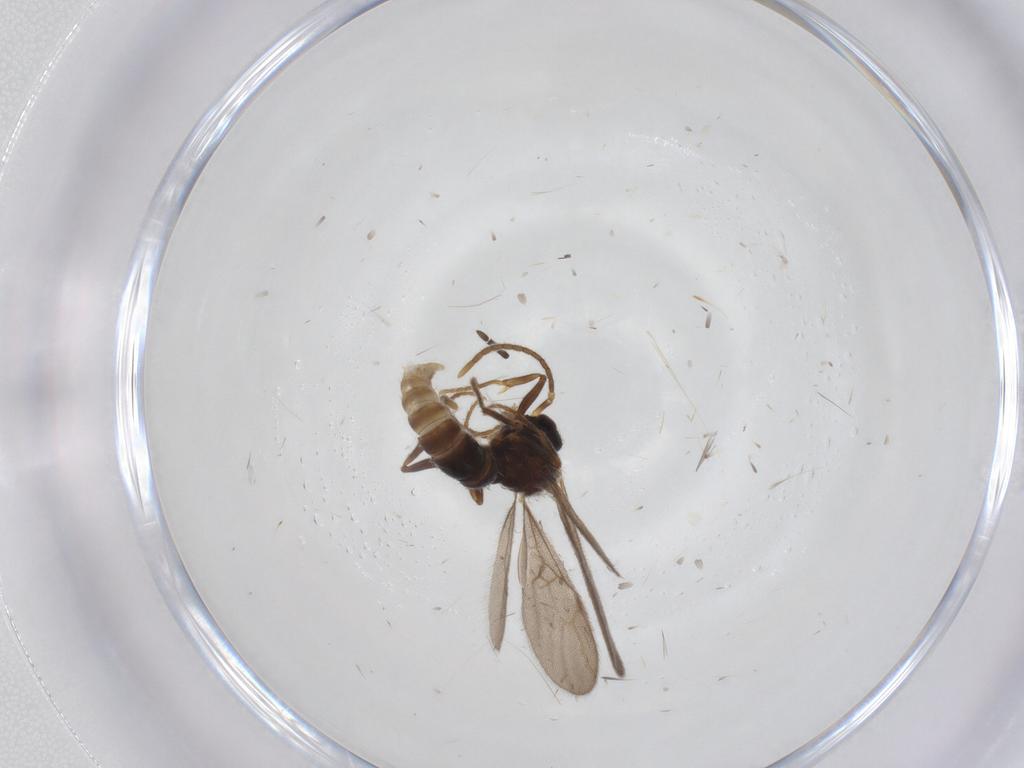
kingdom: Animalia
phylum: Arthropoda
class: Insecta
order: Hymenoptera
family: Formicidae
